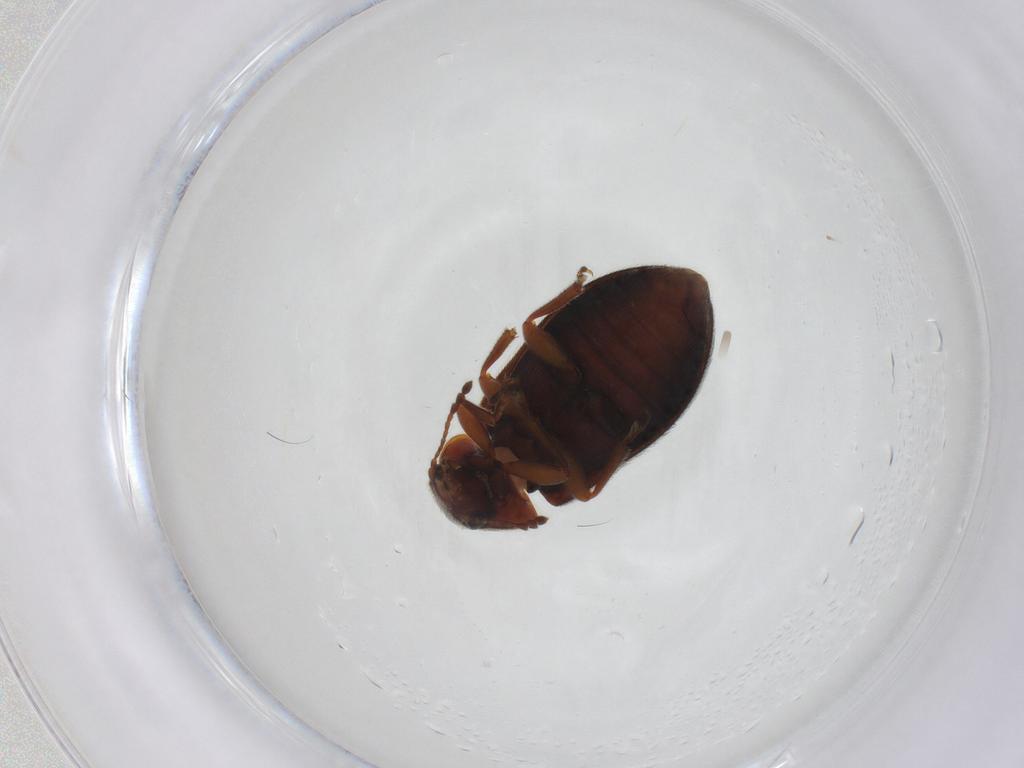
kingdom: Animalia
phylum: Arthropoda
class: Insecta
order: Coleoptera
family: Byturidae
